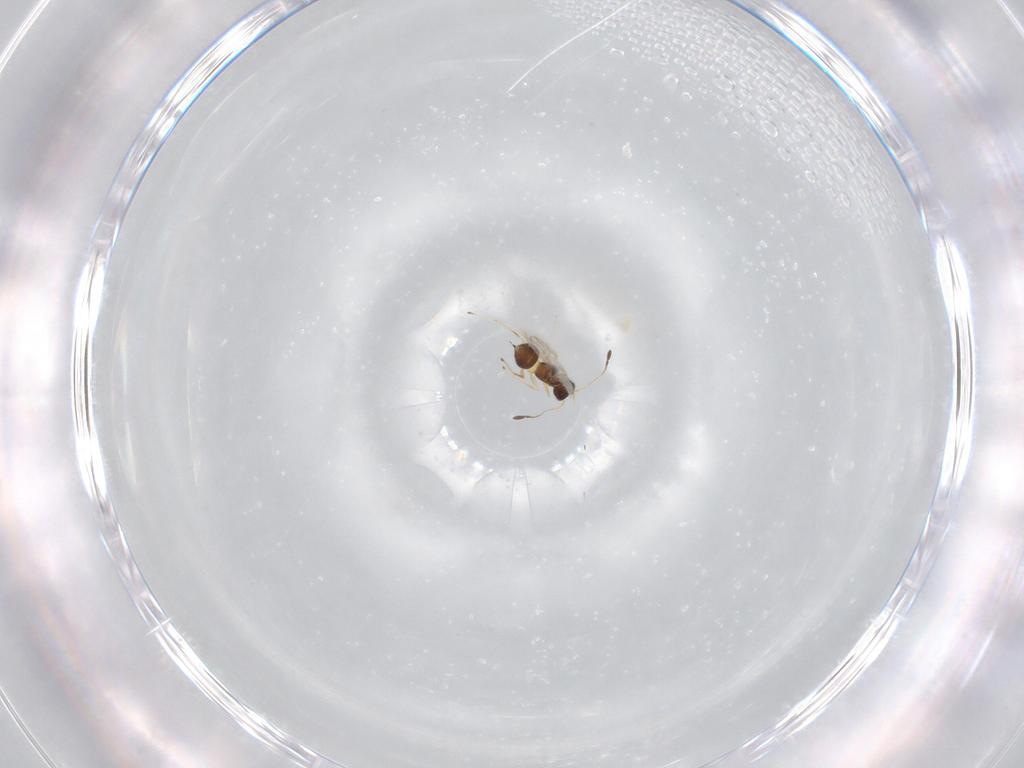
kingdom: Animalia
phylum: Arthropoda
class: Insecta
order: Hymenoptera
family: Mymaridae
